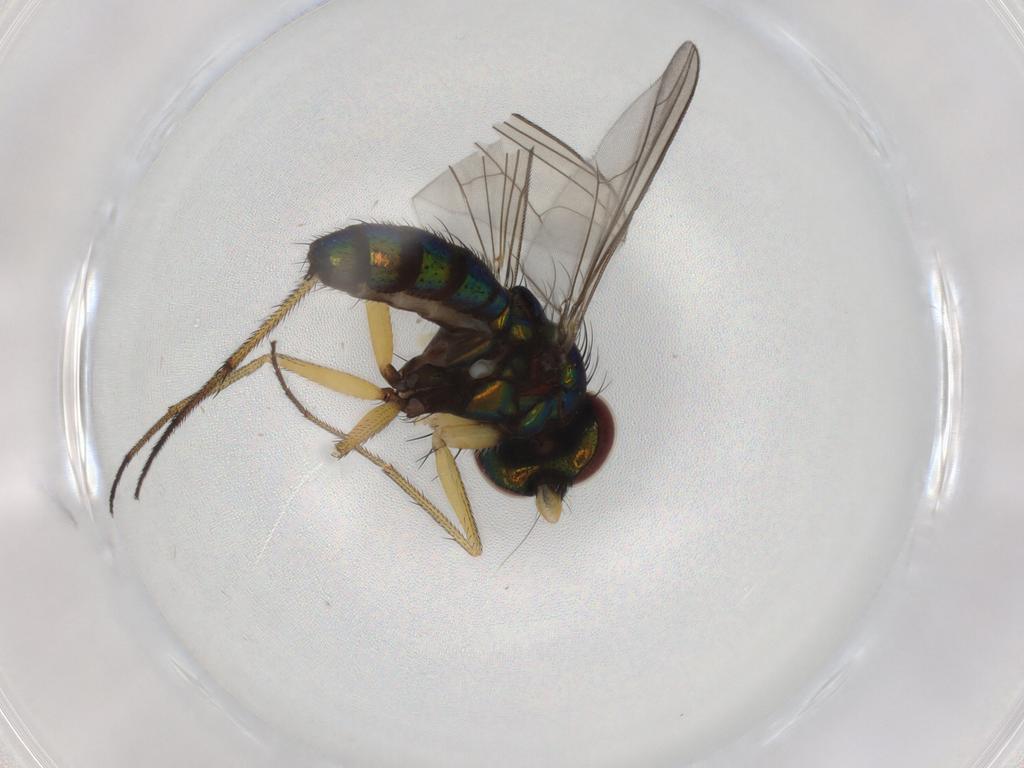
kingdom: Animalia
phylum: Arthropoda
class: Insecta
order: Diptera
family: Dolichopodidae
